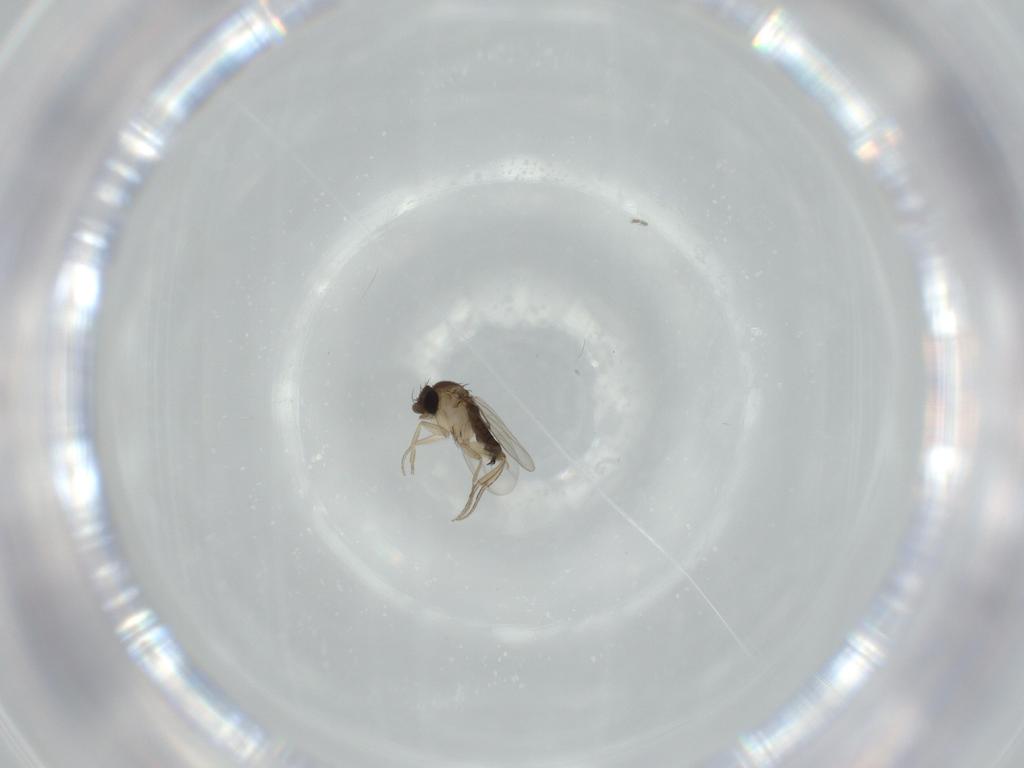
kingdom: Animalia
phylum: Arthropoda
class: Insecta
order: Diptera
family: Phoridae
